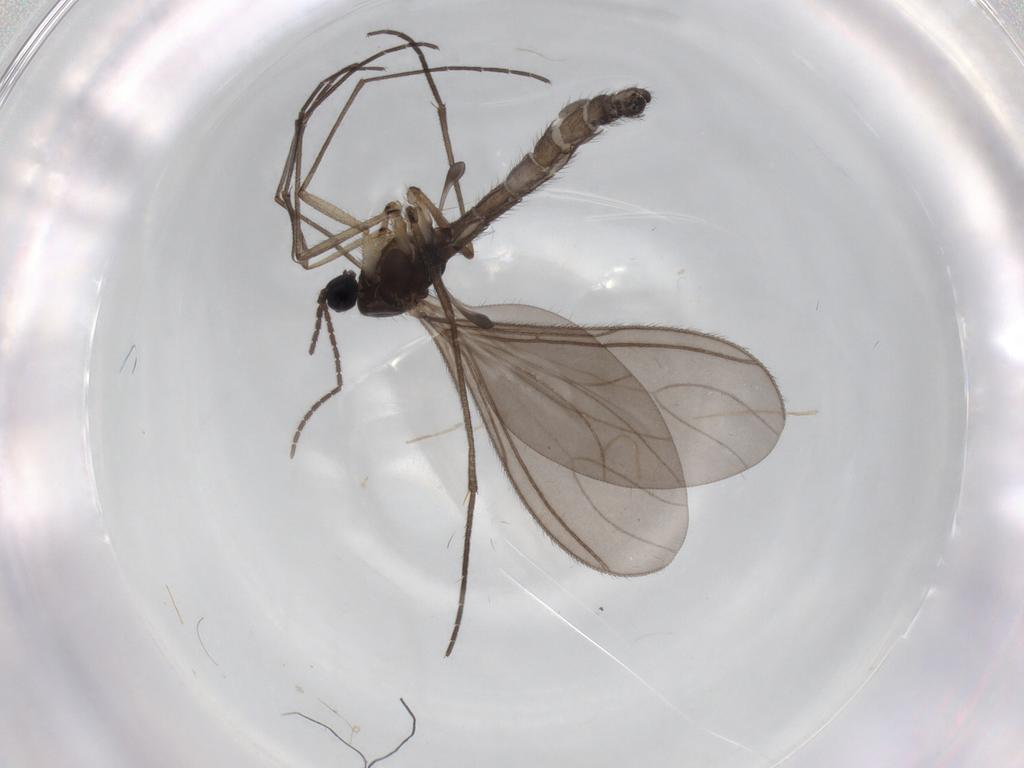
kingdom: Animalia
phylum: Arthropoda
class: Insecta
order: Diptera
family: Sciaridae
